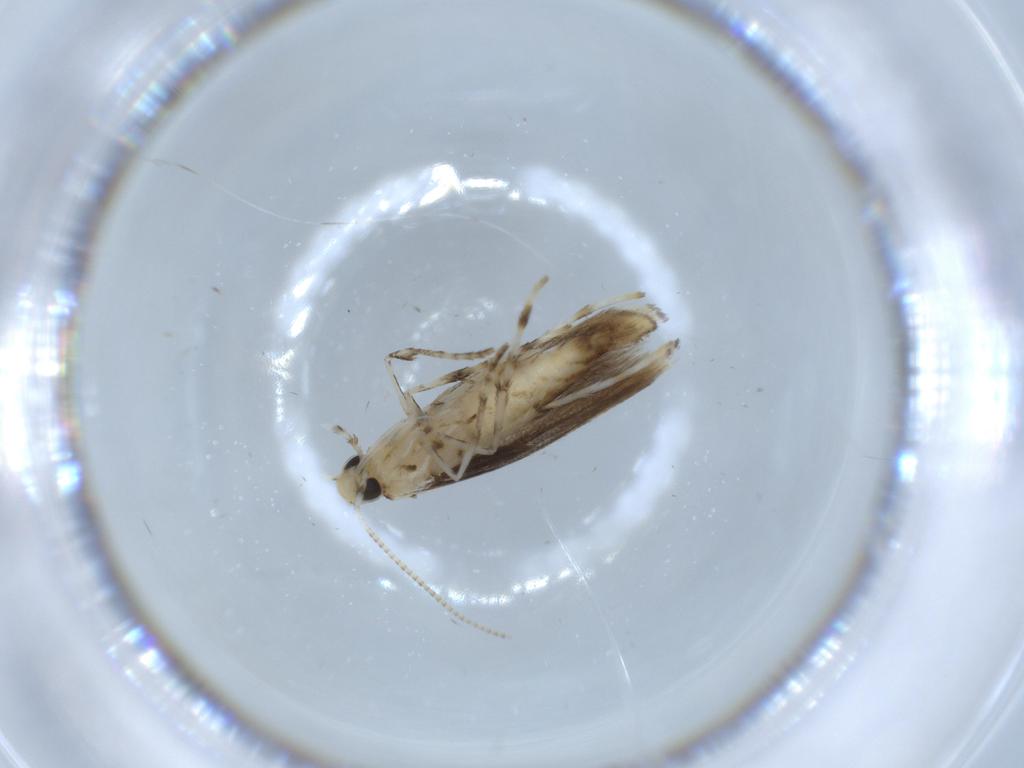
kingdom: Animalia
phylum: Arthropoda
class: Insecta
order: Lepidoptera
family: Gracillariidae
